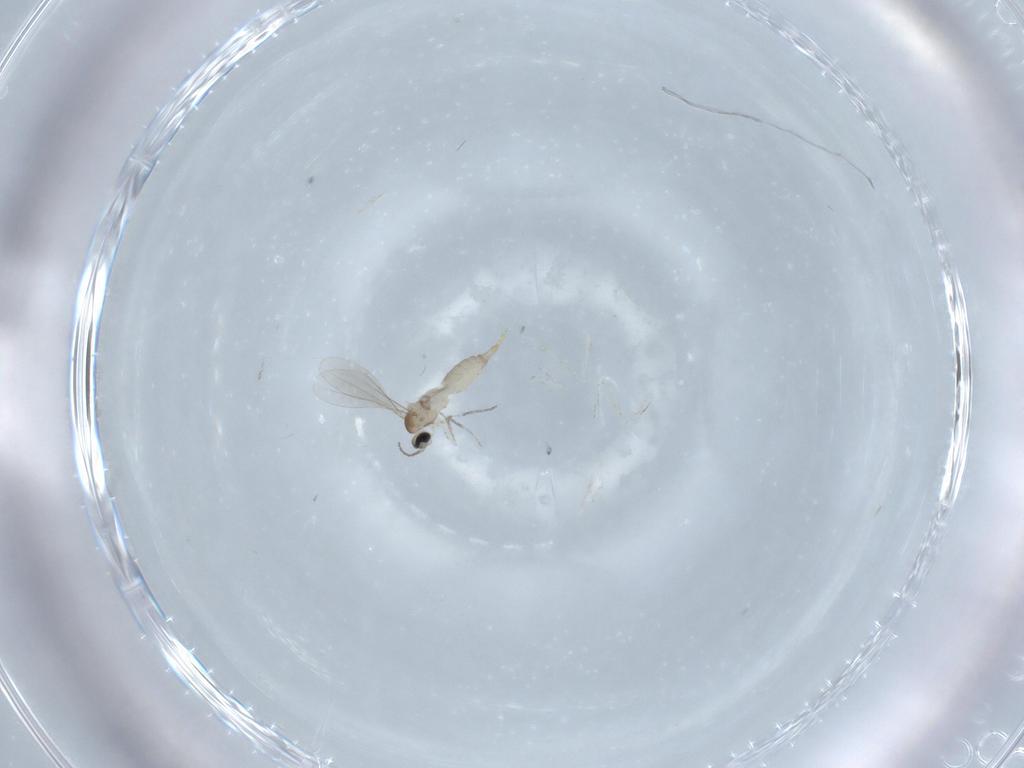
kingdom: Animalia
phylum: Arthropoda
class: Insecta
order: Diptera
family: Cecidomyiidae
